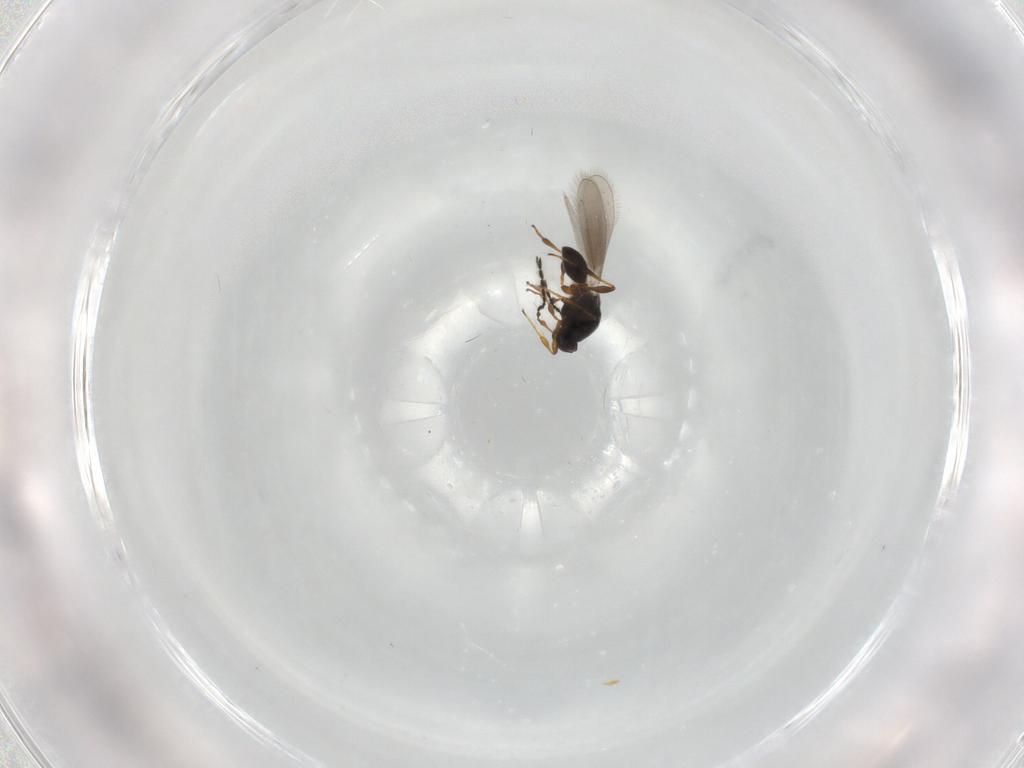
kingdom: Animalia
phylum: Arthropoda
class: Insecta
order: Hymenoptera
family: Platygastridae
